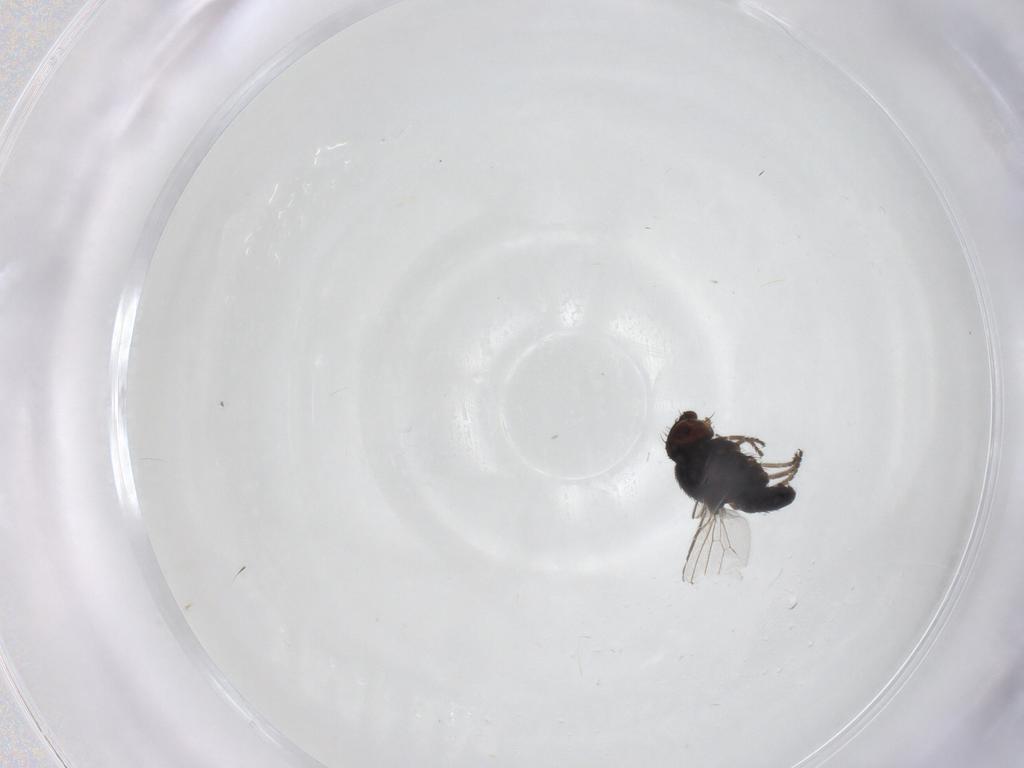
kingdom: Animalia
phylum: Arthropoda
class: Insecta
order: Diptera
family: Milichiidae
